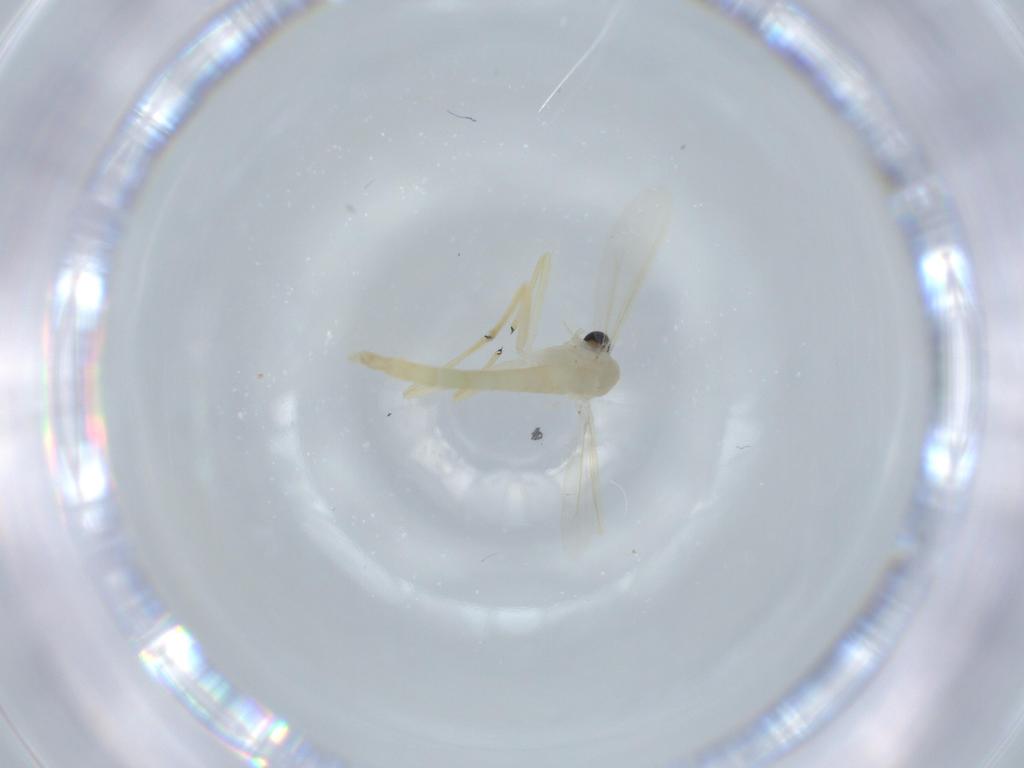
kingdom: Animalia
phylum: Arthropoda
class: Insecta
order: Diptera
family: Chironomidae
